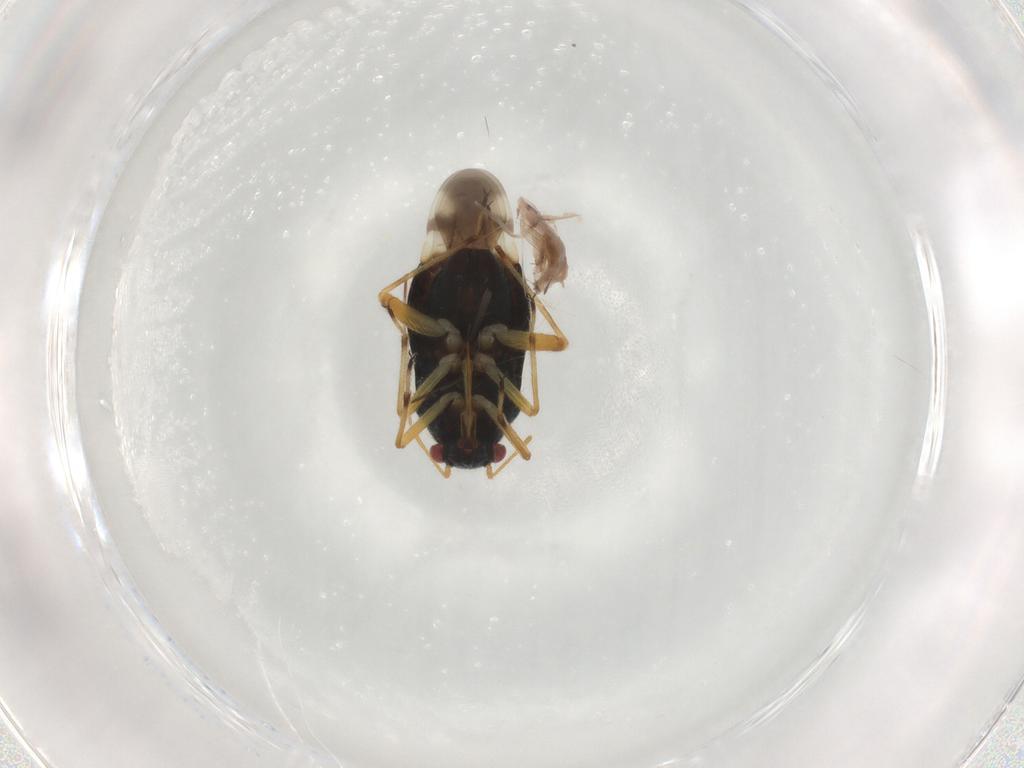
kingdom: Animalia
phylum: Arthropoda
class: Insecta
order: Hemiptera
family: Miridae
